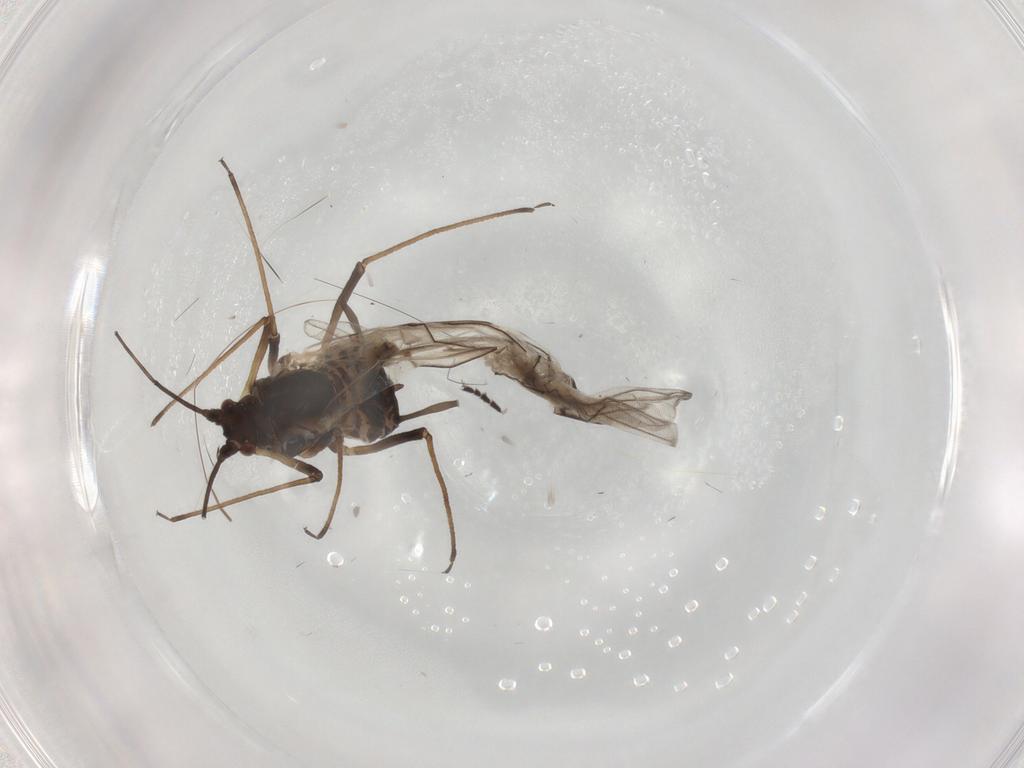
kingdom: Animalia
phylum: Arthropoda
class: Insecta
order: Hemiptera
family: Aphididae
